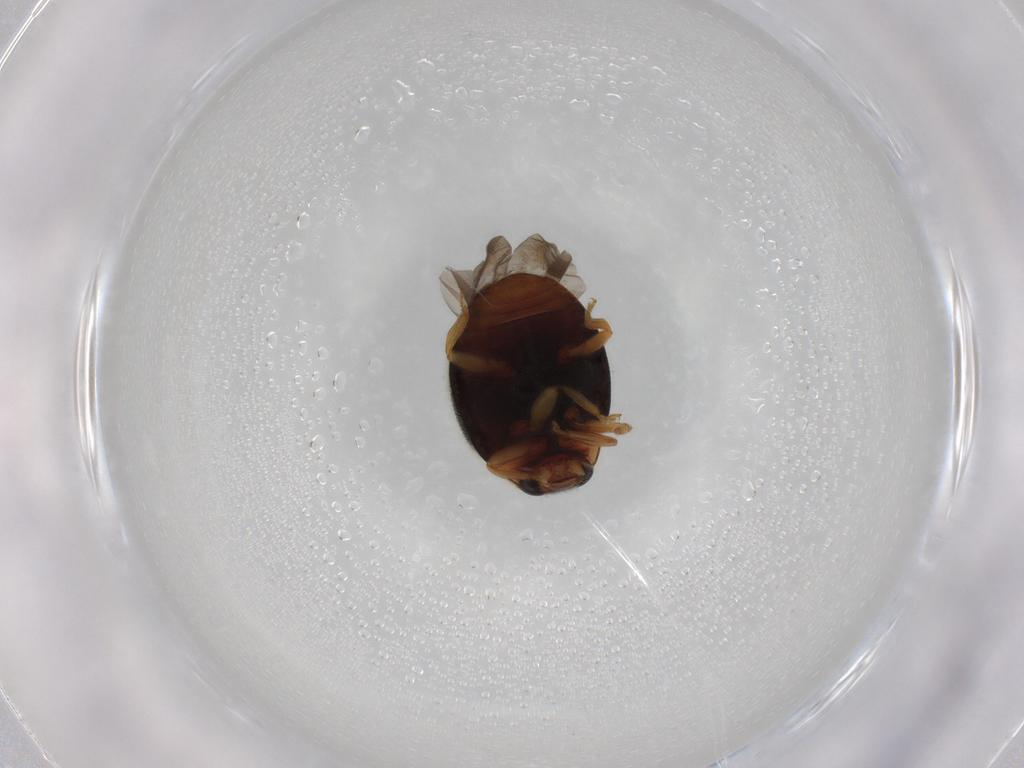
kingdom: Animalia
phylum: Arthropoda
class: Insecta
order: Coleoptera
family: Coccinellidae
